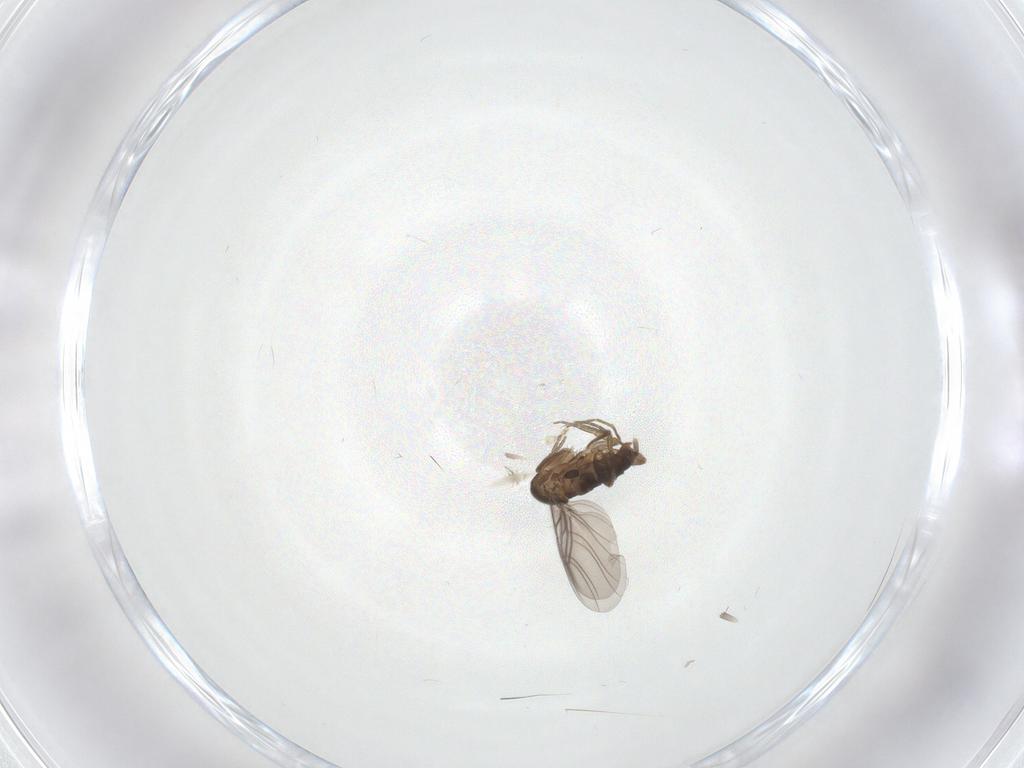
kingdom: Animalia
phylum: Arthropoda
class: Insecta
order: Diptera
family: Phoridae
